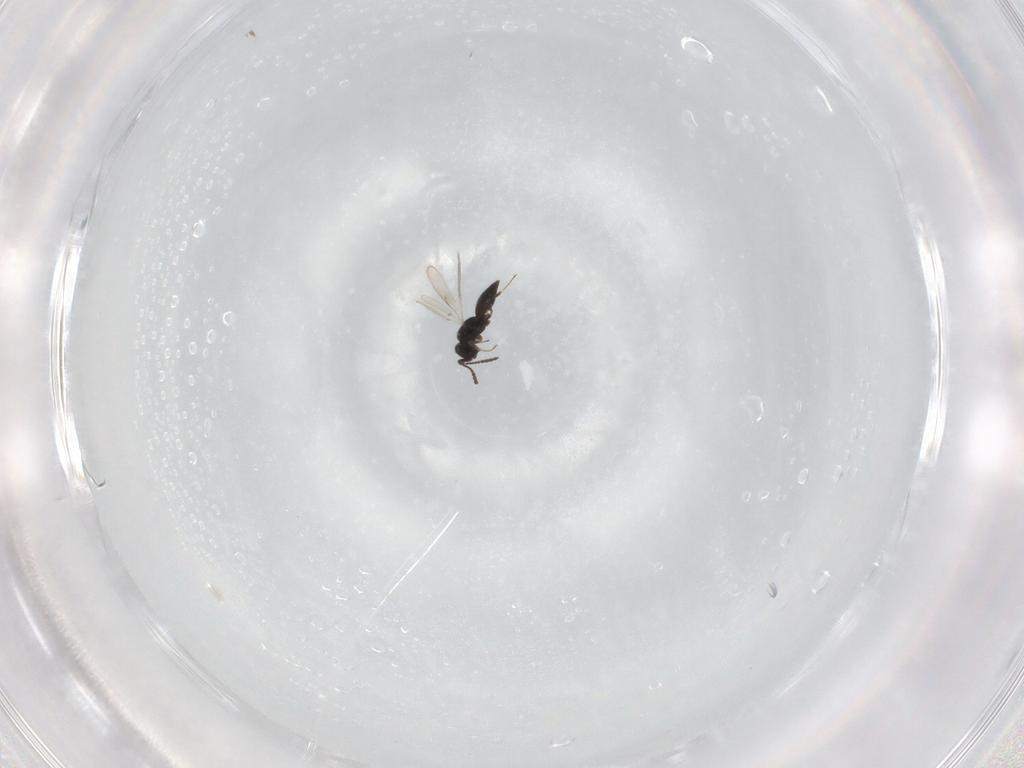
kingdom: Animalia
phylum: Arthropoda
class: Insecta
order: Hymenoptera
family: Scelionidae
